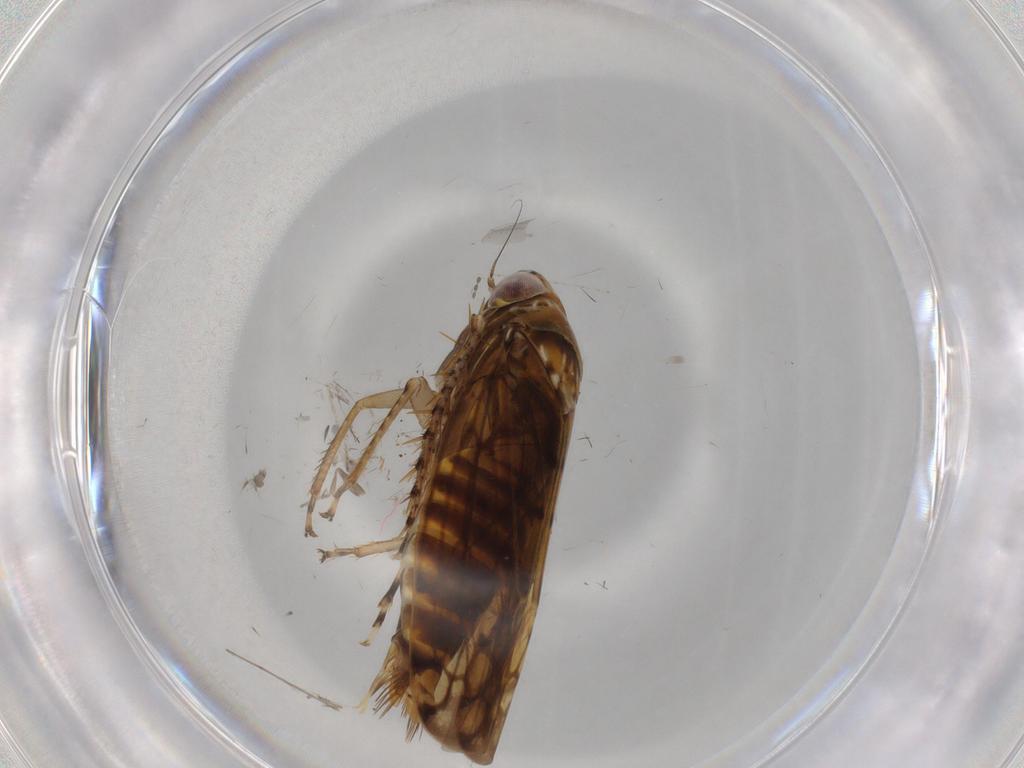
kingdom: Animalia
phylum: Arthropoda
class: Insecta
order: Hemiptera
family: Cicadellidae
